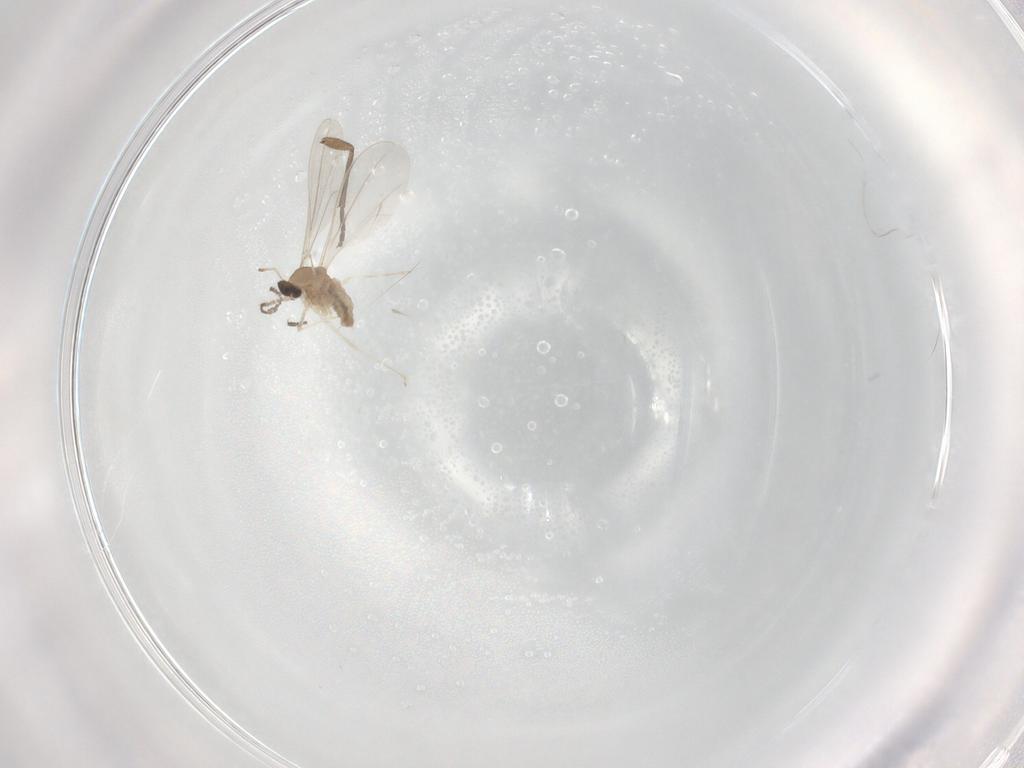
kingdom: Animalia
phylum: Arthropoda
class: Insecta
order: Diptera
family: Cecidomyiidae
